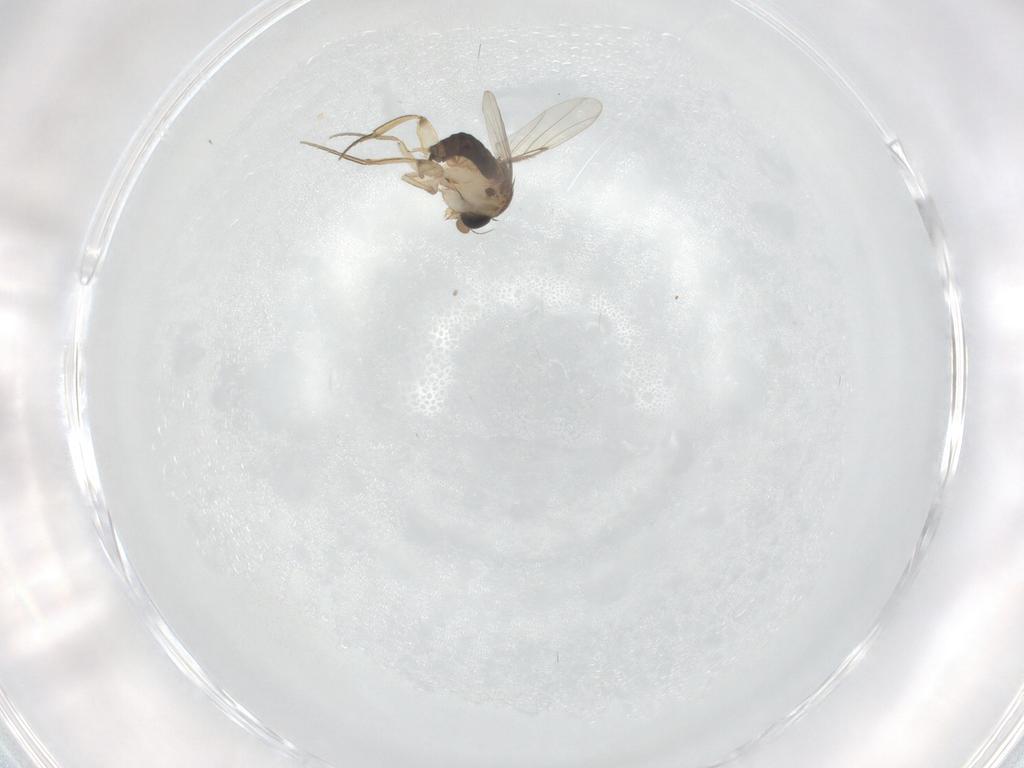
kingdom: Animalia
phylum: Arthropoda
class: Insecta
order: Diptera
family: Phoridae
